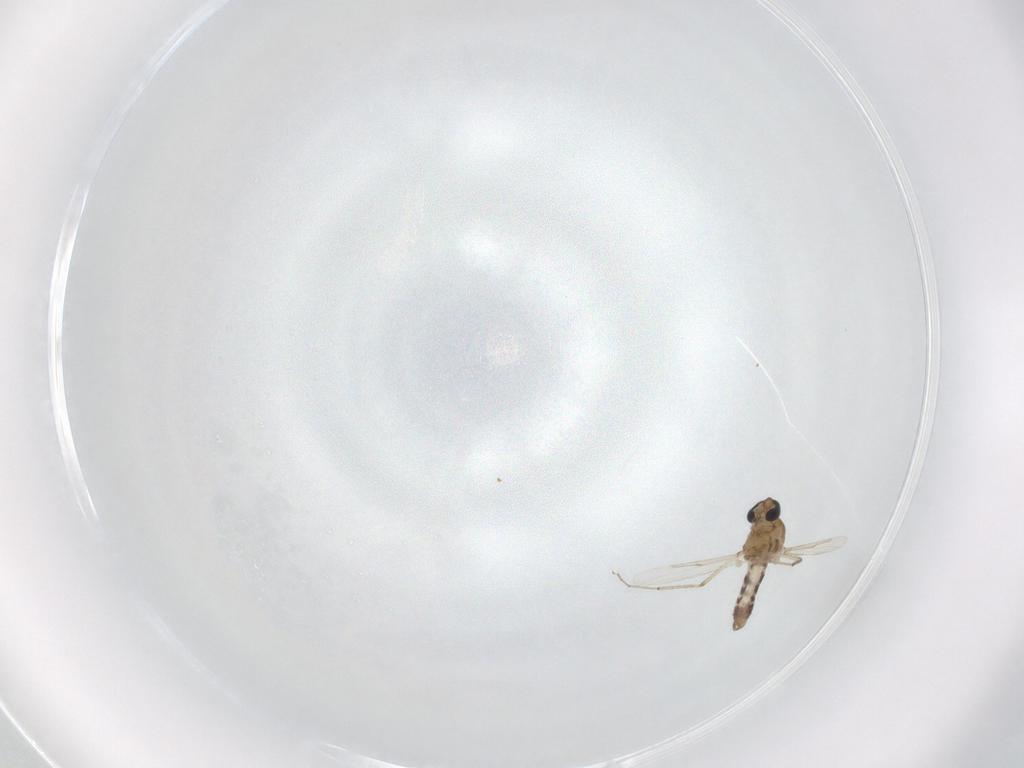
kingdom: Animalia
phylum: Arthropoda
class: Insecta
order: Diptera
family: Ceratopogonidae
